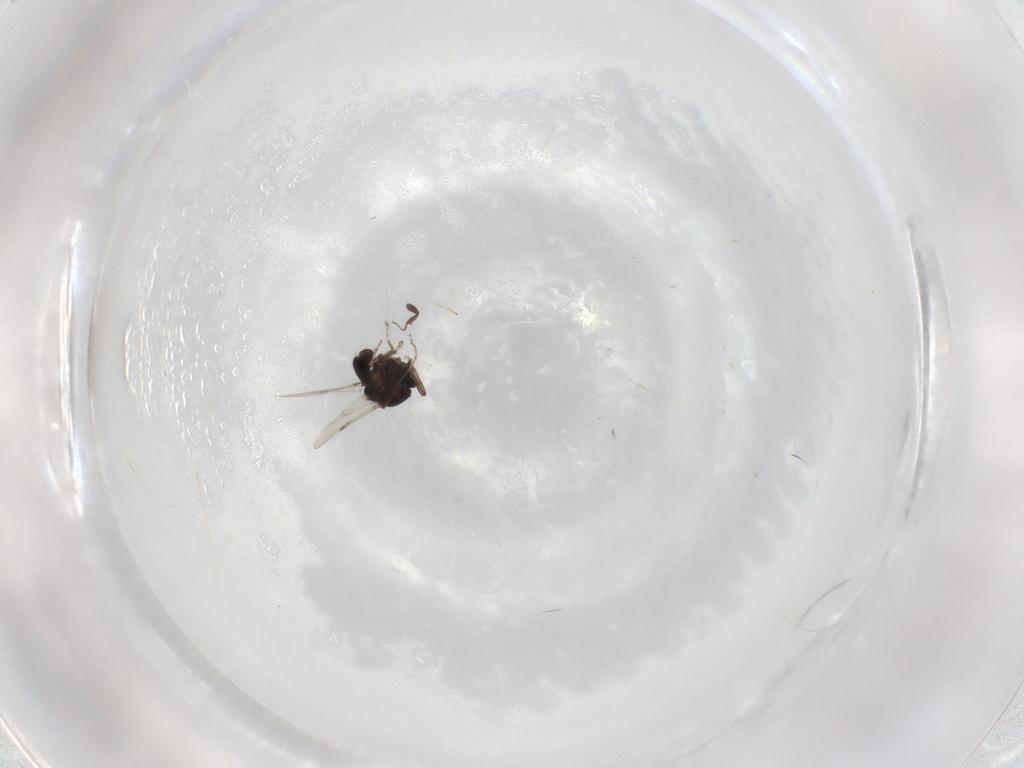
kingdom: Animalia
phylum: Arthropoda
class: Insecta
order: Diptera
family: Ceratopogonidae
